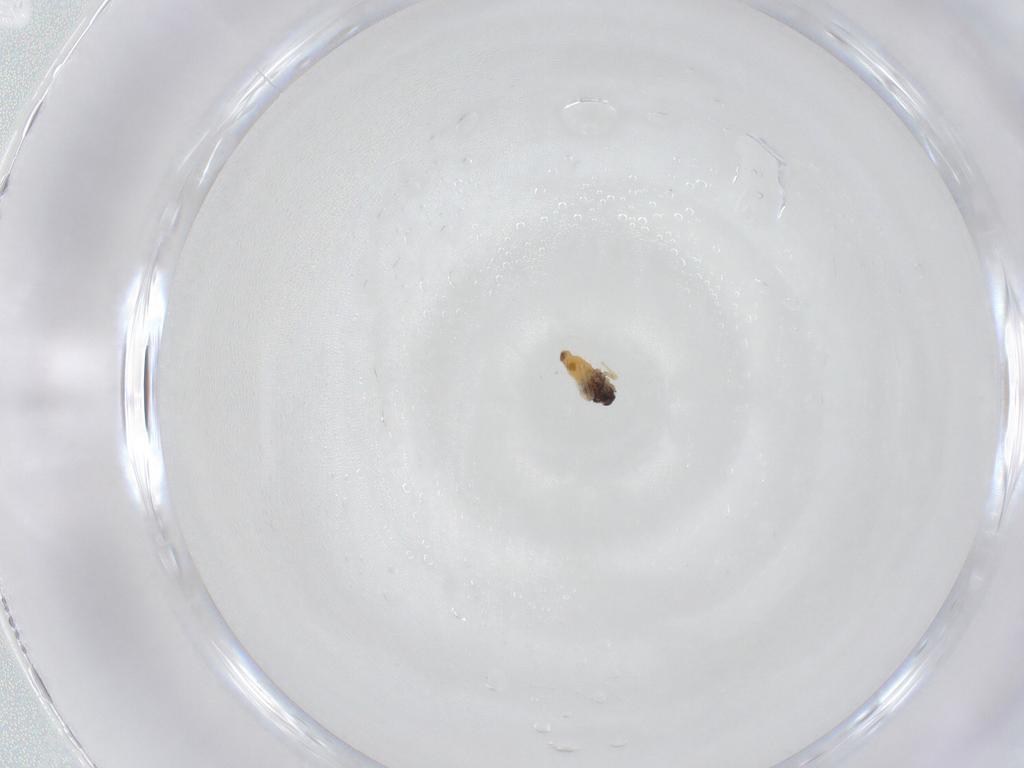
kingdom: Animalia
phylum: Arthropoda
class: Insecta
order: Hemiptera
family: Aleyrodidae
